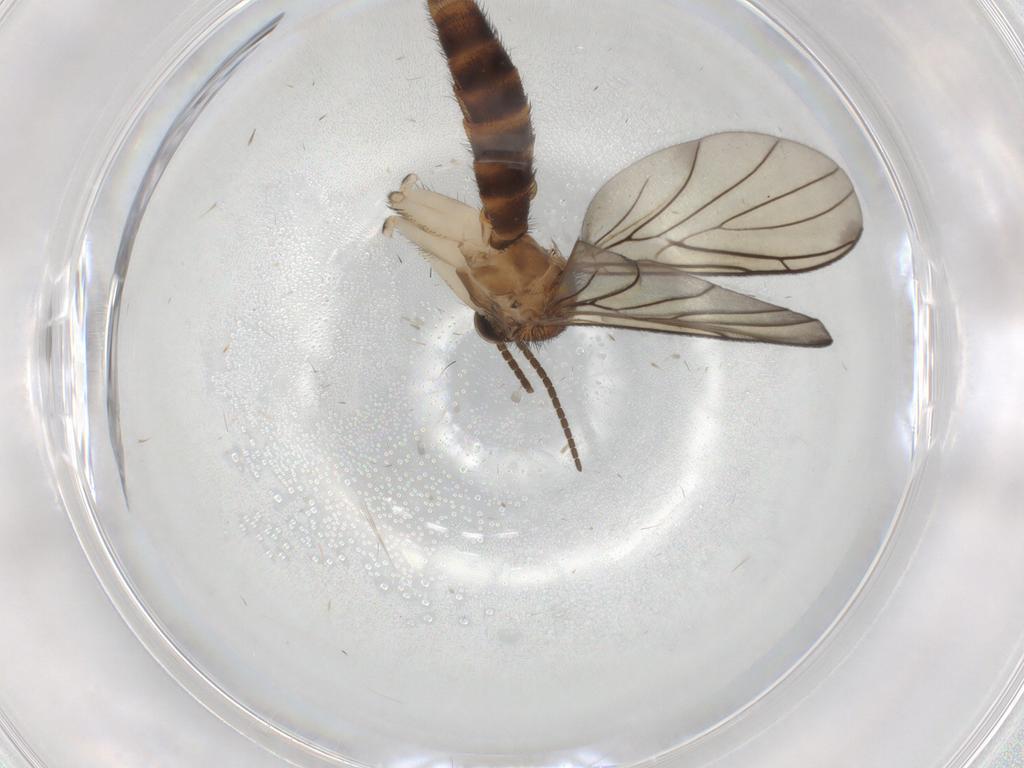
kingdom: Animalia
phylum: Arthropoda
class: Insecta
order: Diptera
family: Keroplatidae
